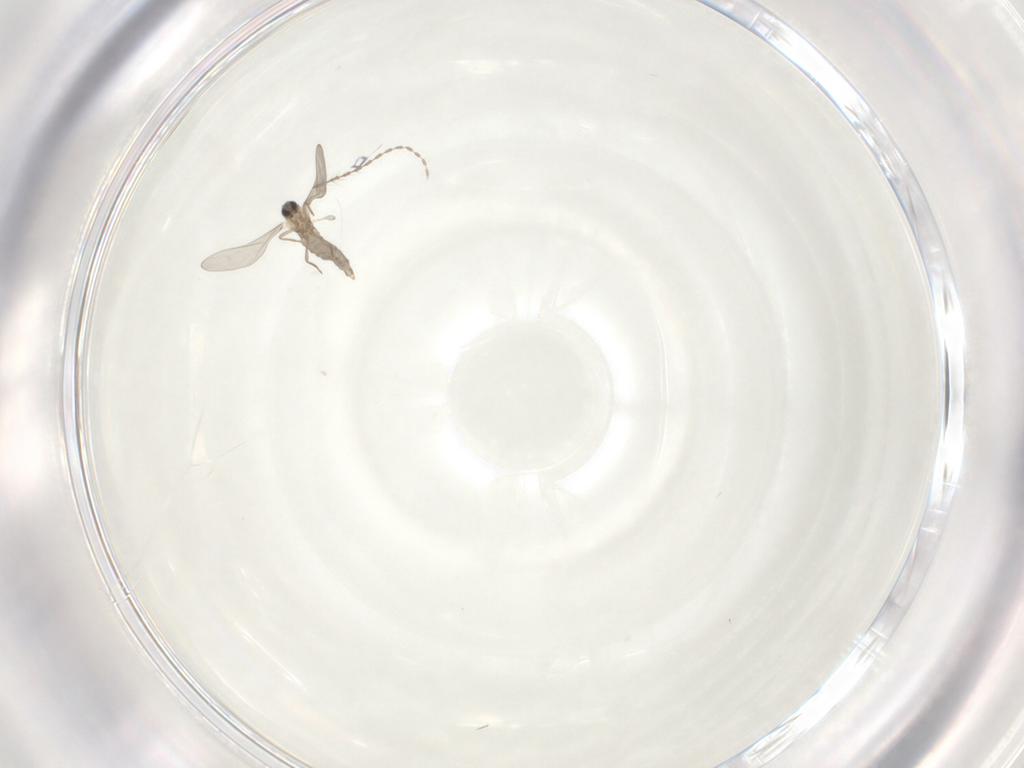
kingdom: Animalia
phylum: Arthropoda
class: Insecta
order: Diptera
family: Cecidomyiidae
